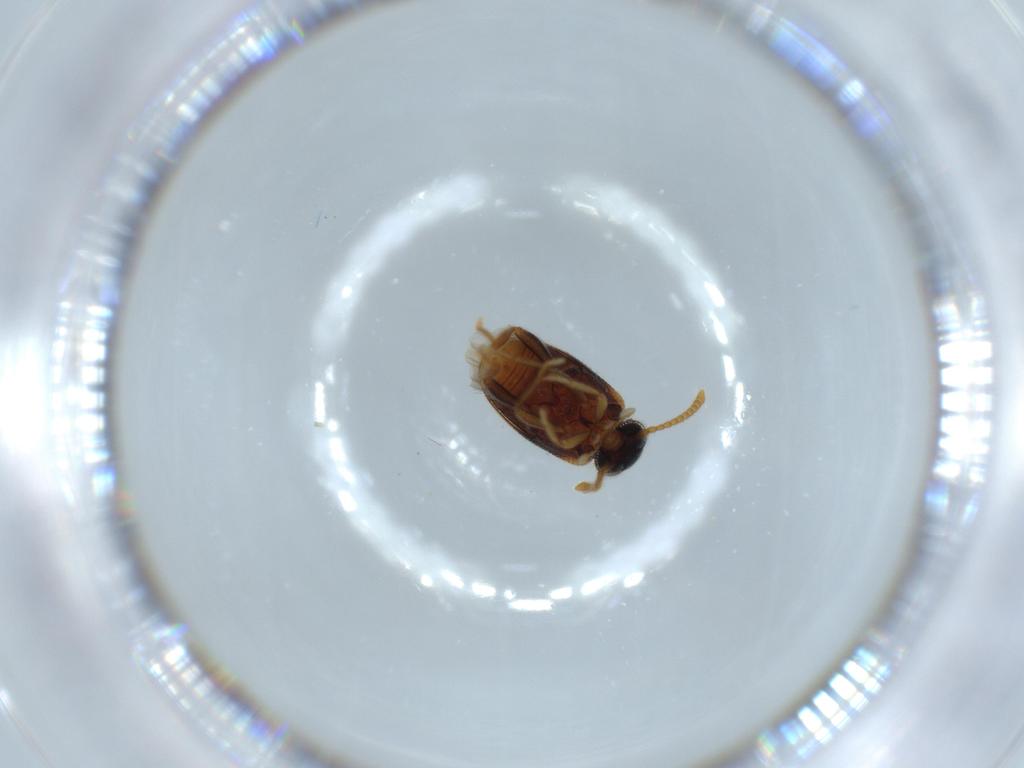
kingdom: Animalia
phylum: Arthropoda
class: Insecta
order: Coleoptera
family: Aderidae
